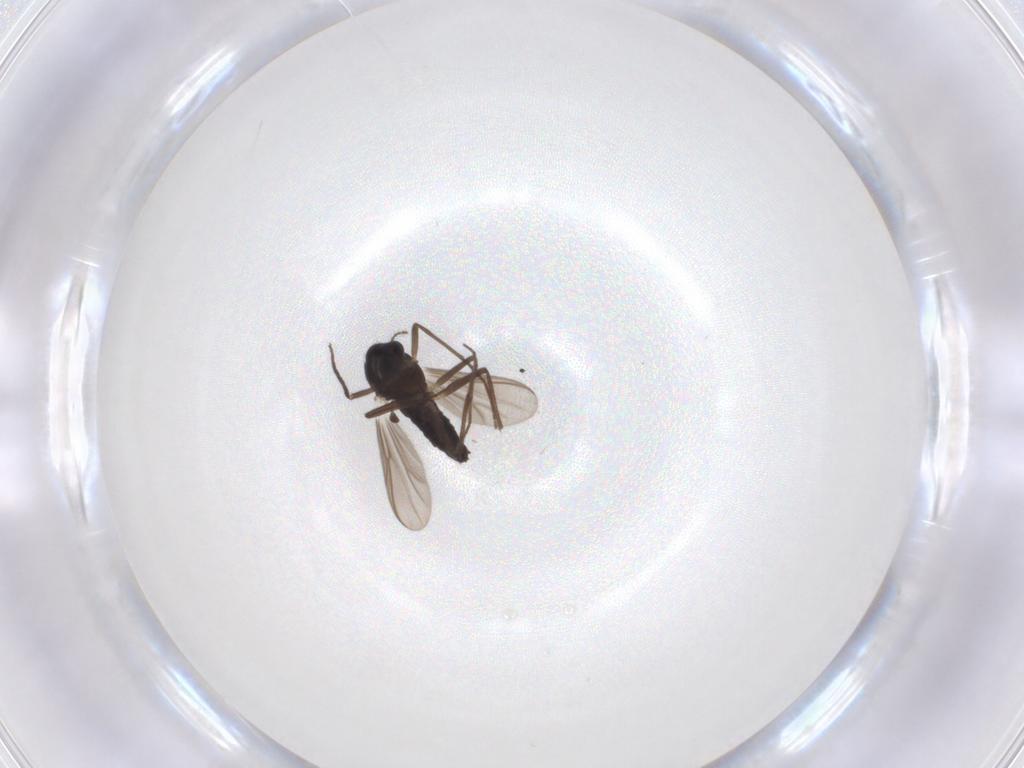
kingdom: Animalia
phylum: Arthropoda
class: Insecta
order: Diptera
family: Chironomidae
